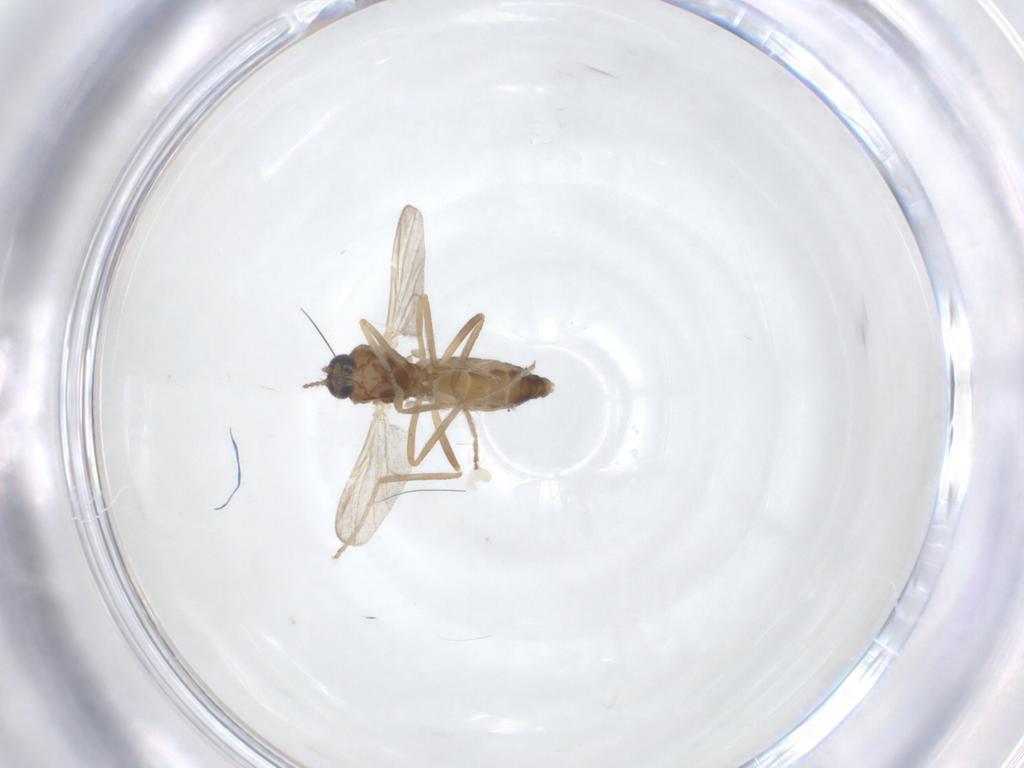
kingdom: Animalia
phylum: Arthropoda
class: Insecta
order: Diptera
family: Ceratopogonidae
